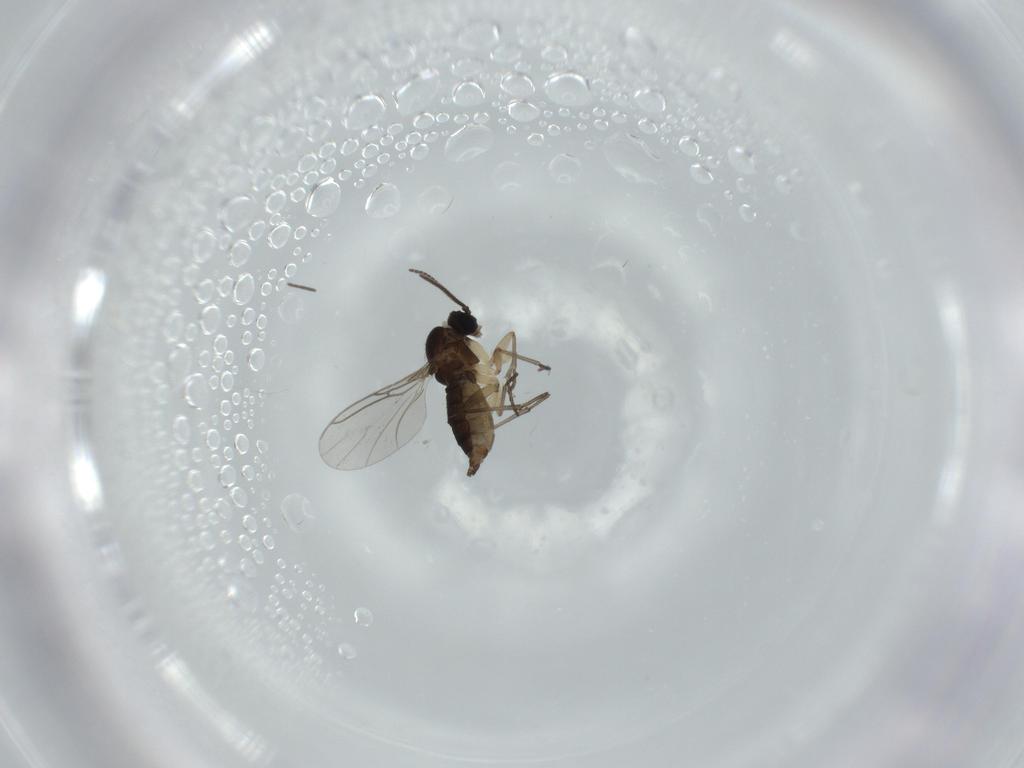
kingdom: Animalia
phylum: Arthropoda
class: Insecta
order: Diptera
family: Sciaridae
